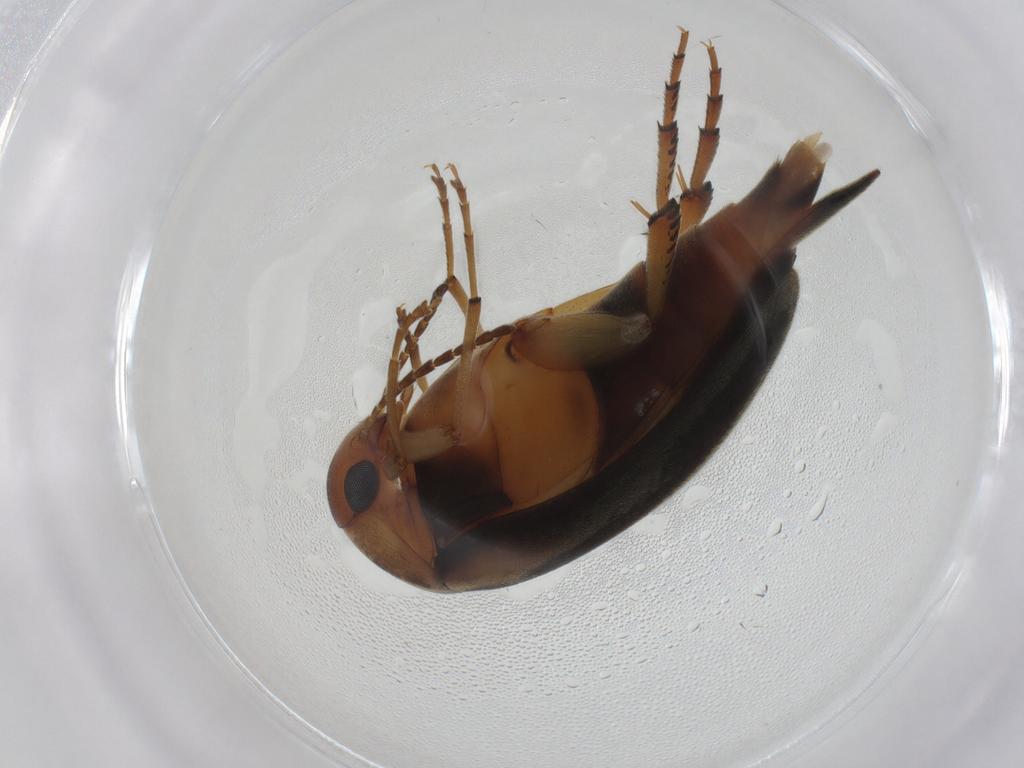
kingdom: Animalia
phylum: Arthropoda
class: Insecta
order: Coleoptera
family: Mordellidae
